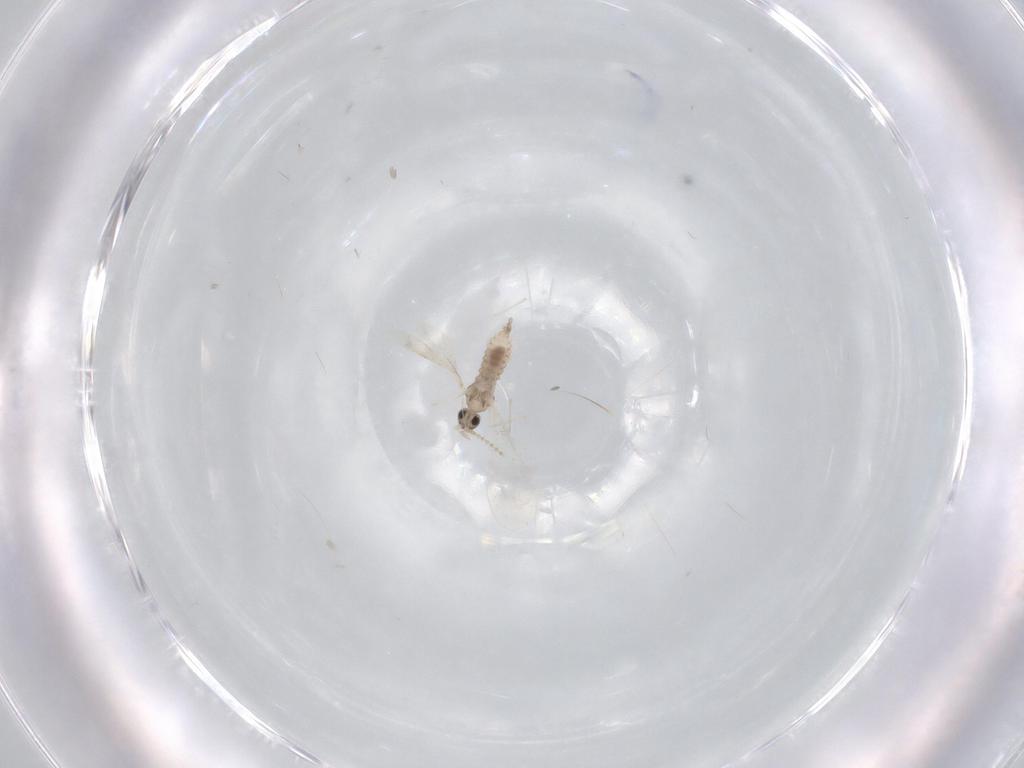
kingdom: Animalia
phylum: Arthropoda
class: Insecta
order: Diptera
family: Cecidomyiidae
